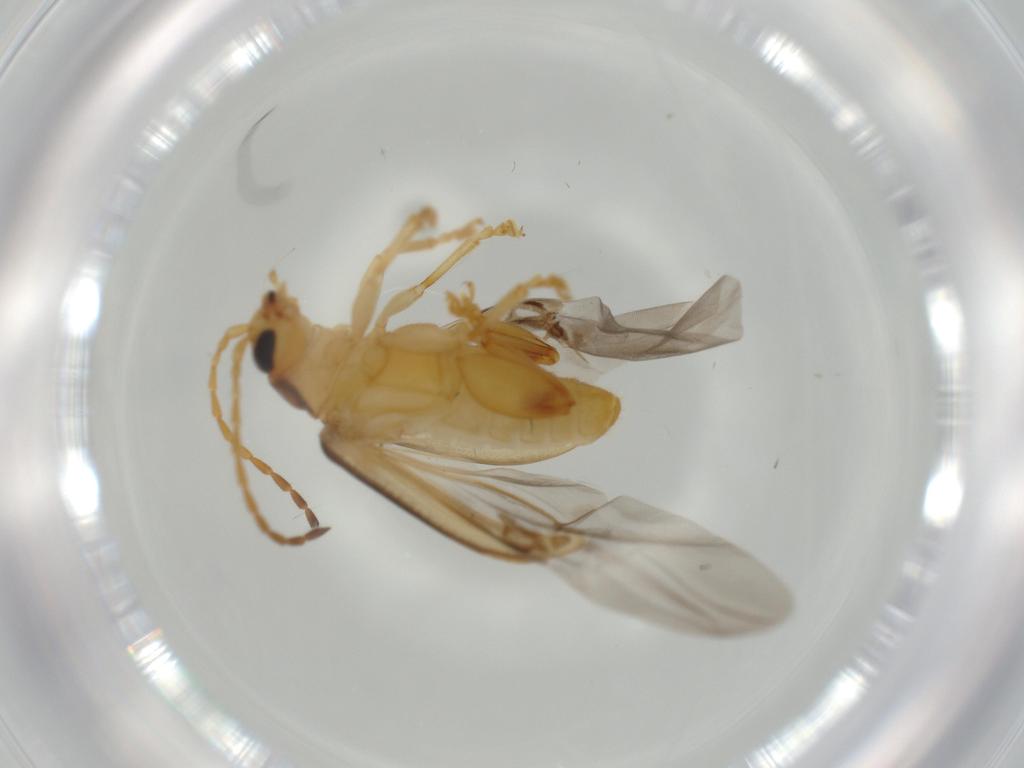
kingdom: Animalia
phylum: Arthropoda
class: Insecta
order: Coleoptera
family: Chrysomelidae
